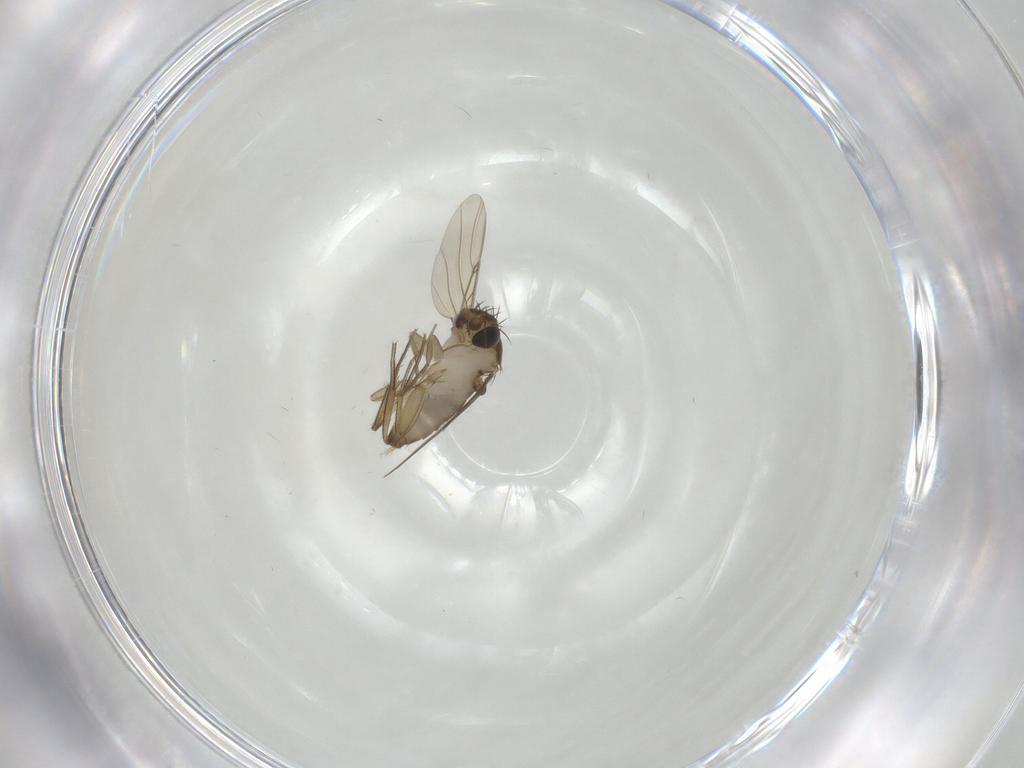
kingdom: Animalia
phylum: Arthropoda
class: Insecta
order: Diptera
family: Phoridae
